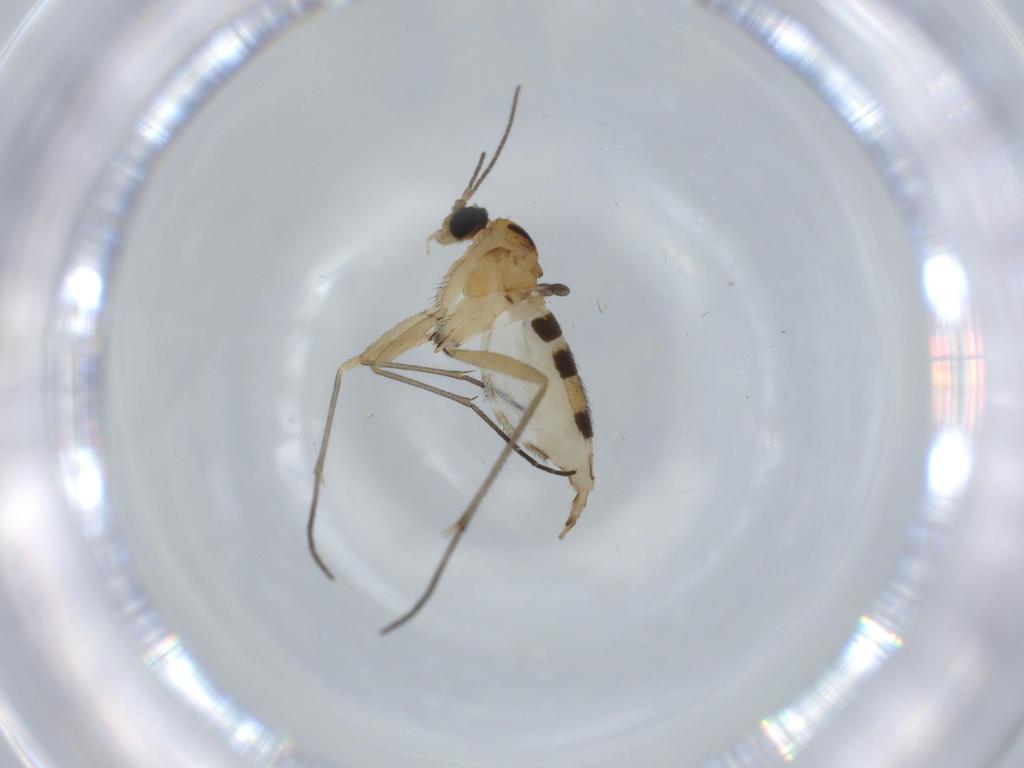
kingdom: Animalia
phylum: Arthropoda
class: Insecta
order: Diptera
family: Sciaridae
